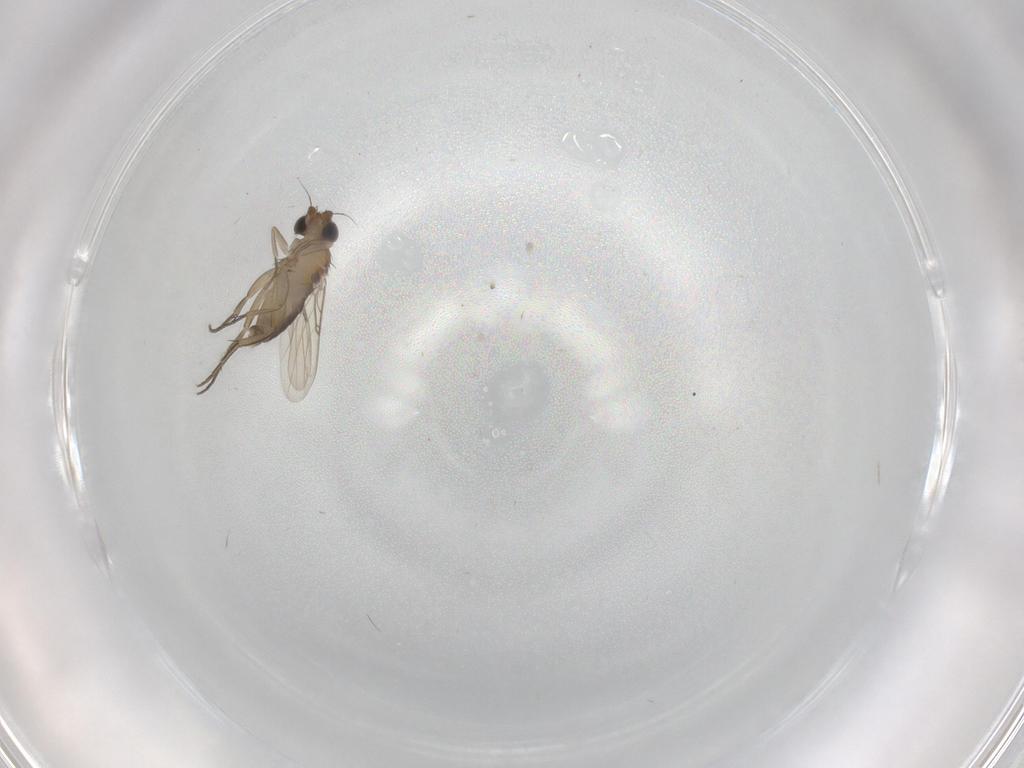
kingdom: Animalia
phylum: Arthropoda
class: Insecta
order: Diptera
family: Phoridae
